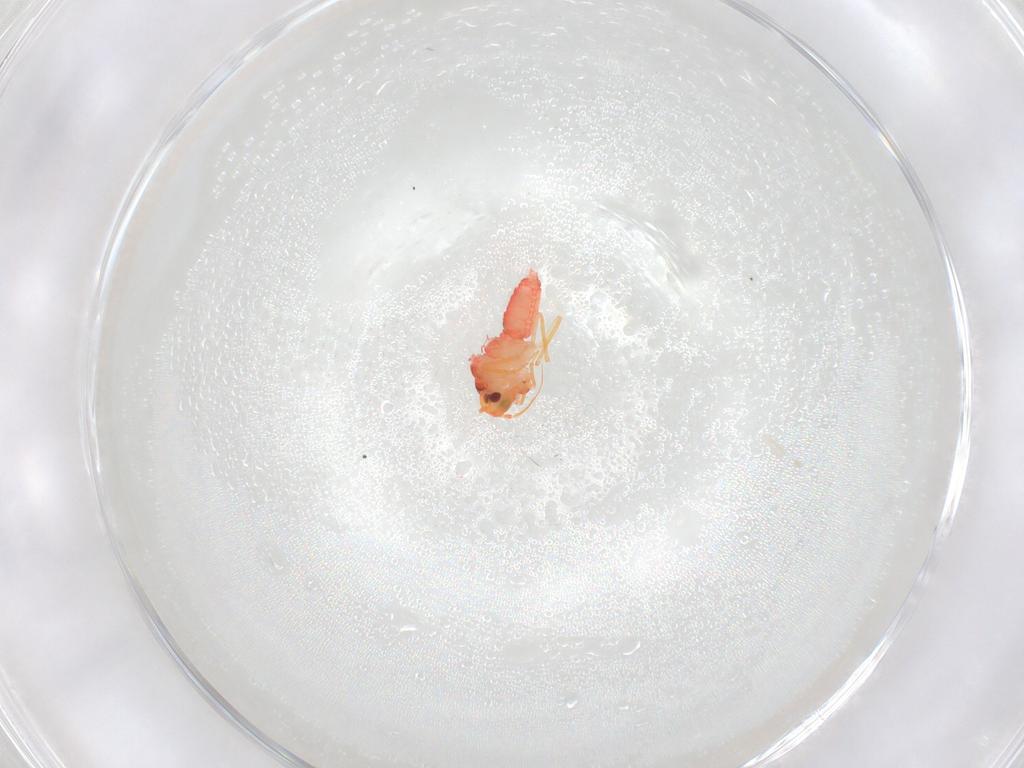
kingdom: Animalia
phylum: Arthropoda
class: Insecta
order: Hemiptera
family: Aleyrodidae
